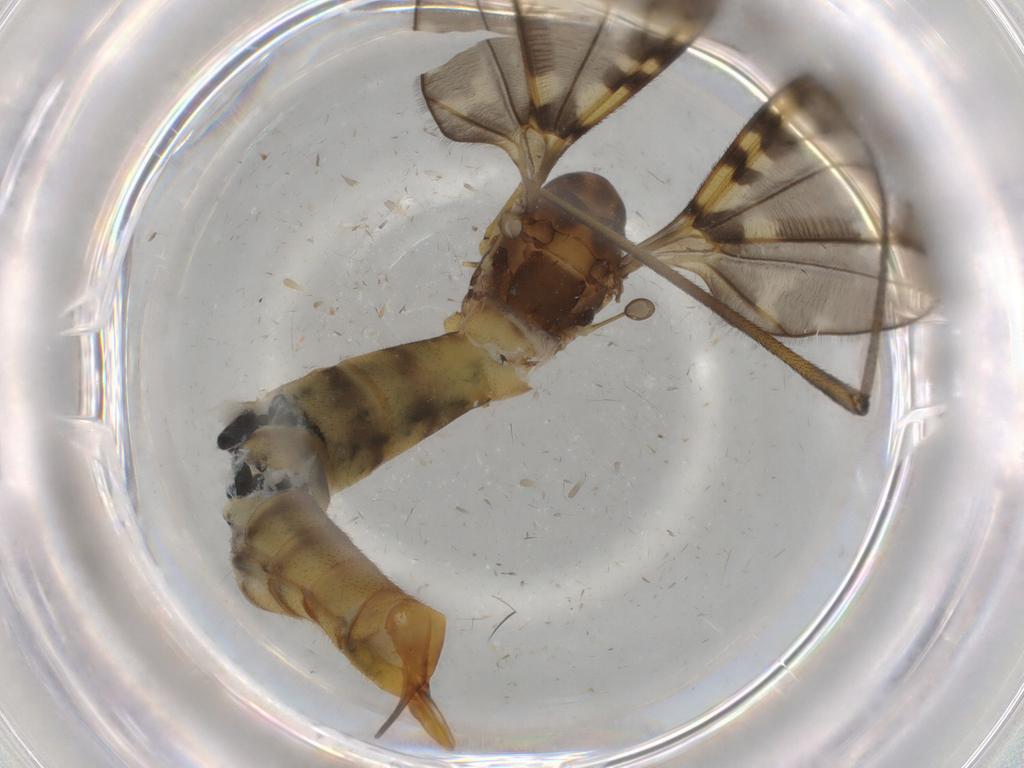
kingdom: Animalia
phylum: Arthropoda
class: Insecta
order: Diptera
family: Tipulidae
